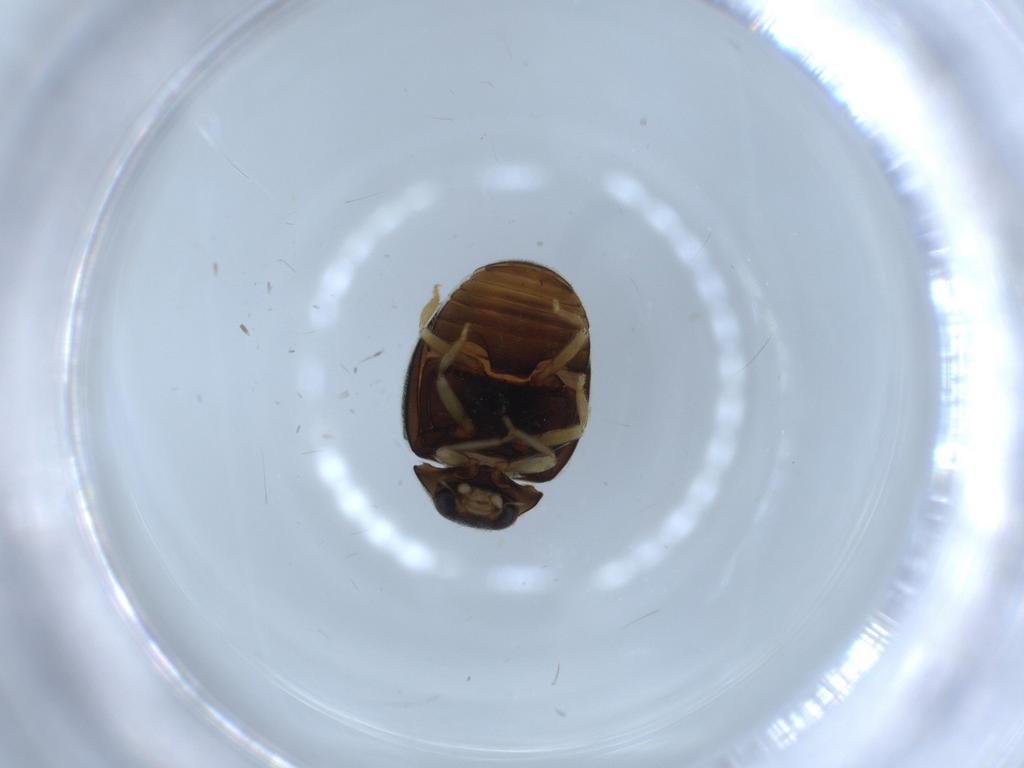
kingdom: Animalia
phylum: Arthropoda
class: Insecta
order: Coleoptera
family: Coccinellidae
